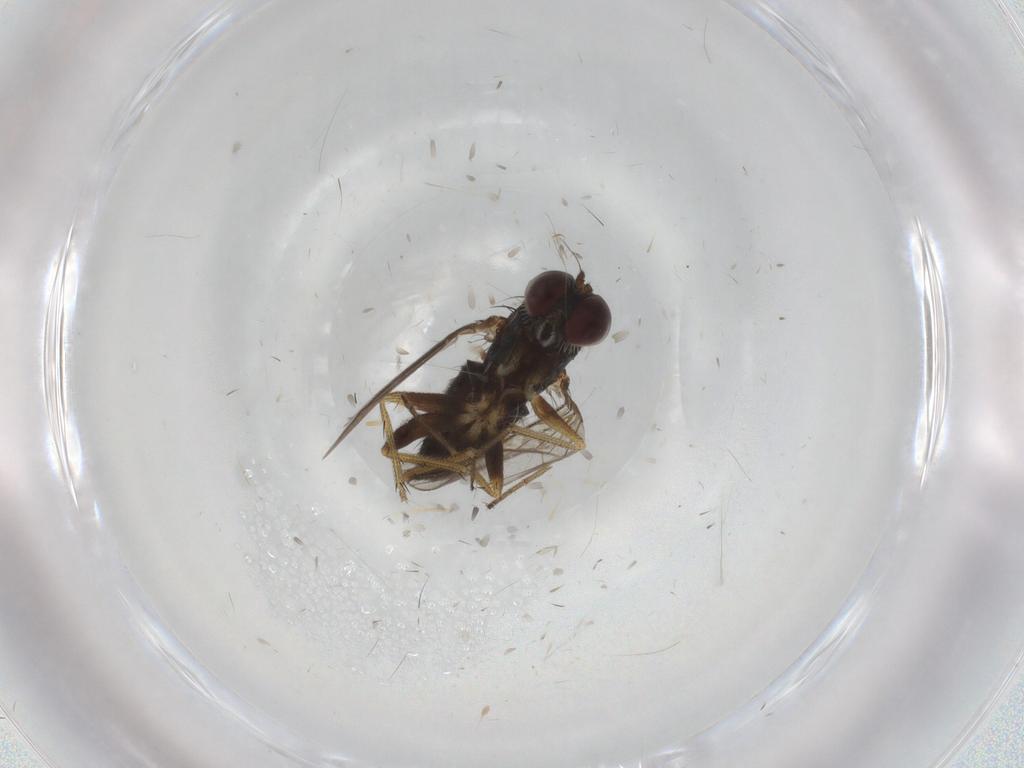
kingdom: Animalia
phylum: Arthropoda
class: Insecta
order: Diptera
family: Dolichopodidae
